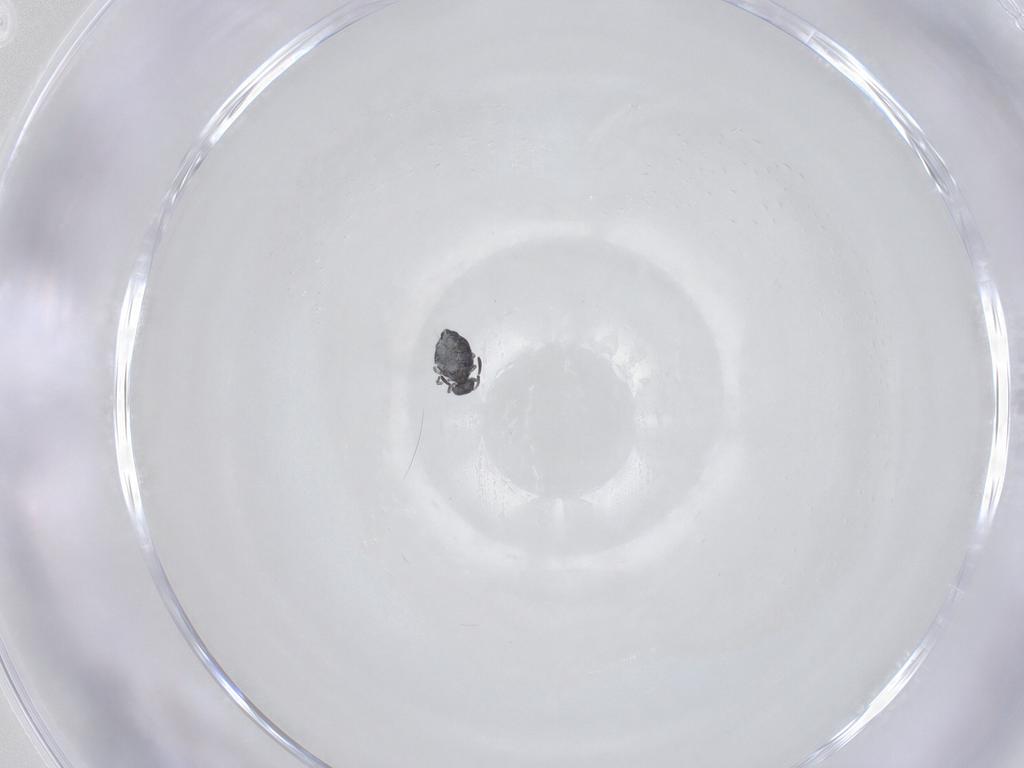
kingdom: Animalia
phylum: Arthropoda
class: Collembola
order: Symphypleona
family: Katiannidae
